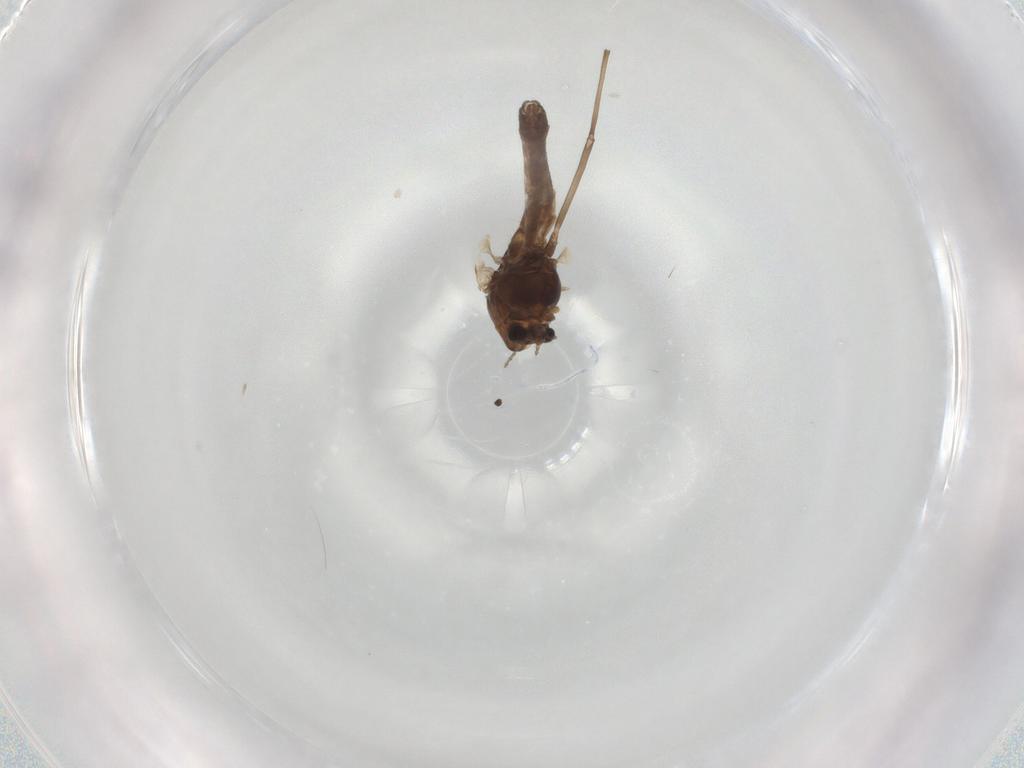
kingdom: Animalia
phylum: Arthropoda
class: Insecta
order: Diptera
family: Chironomidae
